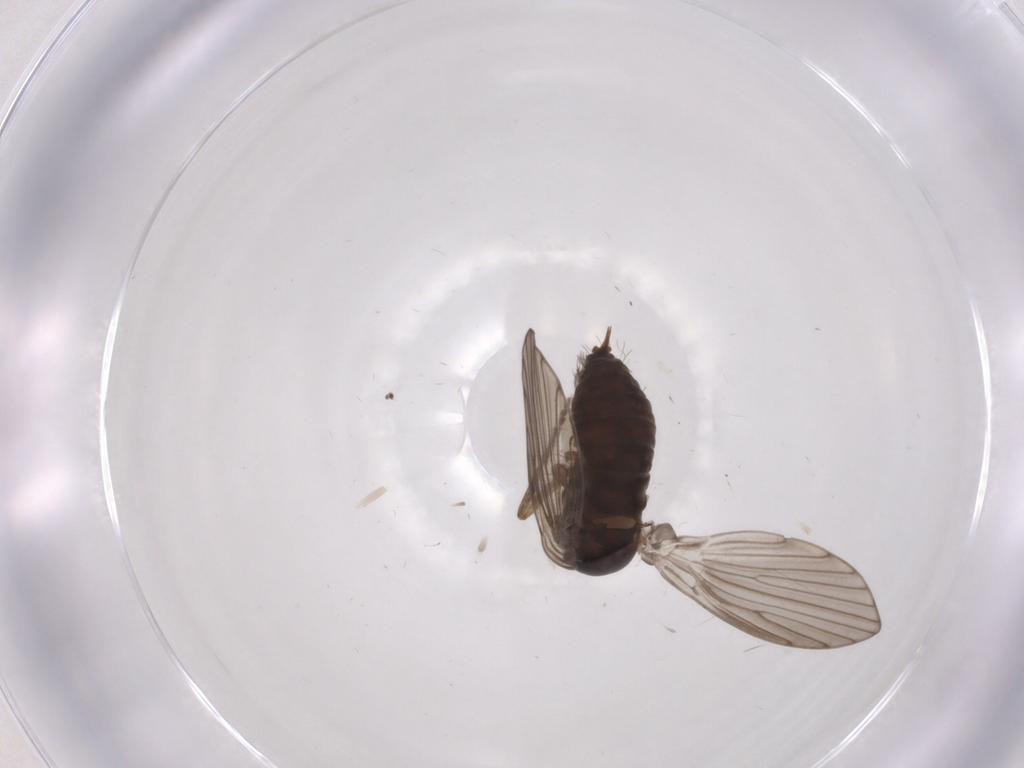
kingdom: Animalia
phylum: Arthropoda
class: Insecta
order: Diptera
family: Psychodidae
